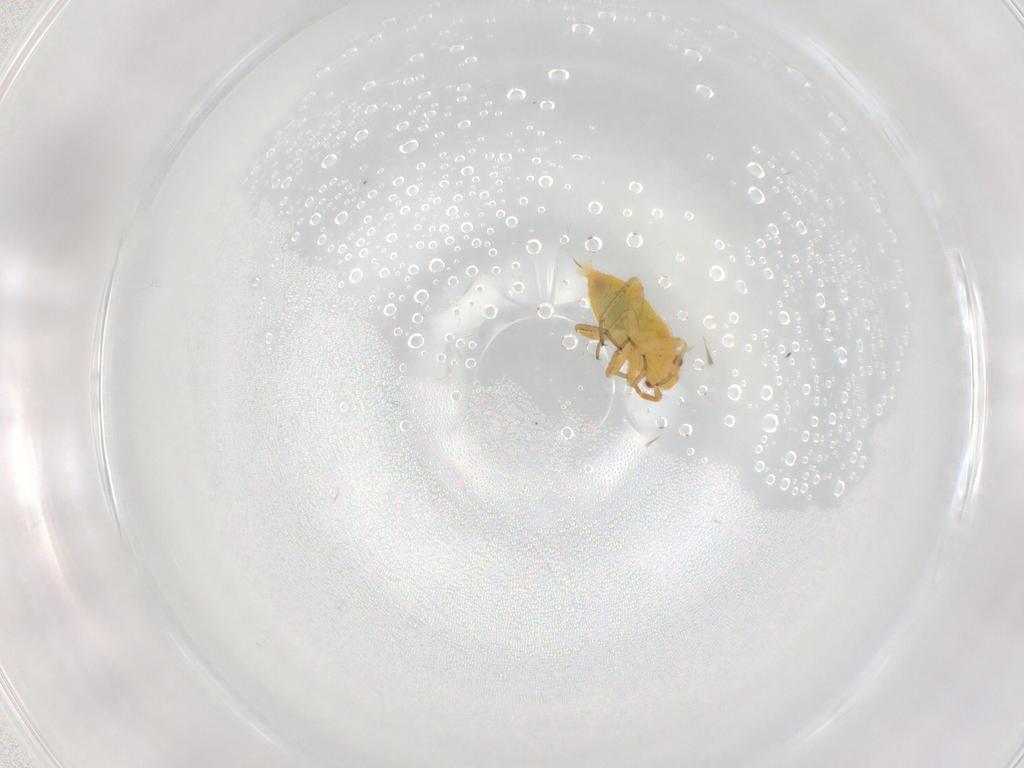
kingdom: Animalia
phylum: Arthropoda
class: Insecta
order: Hemiptera
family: Miridae
